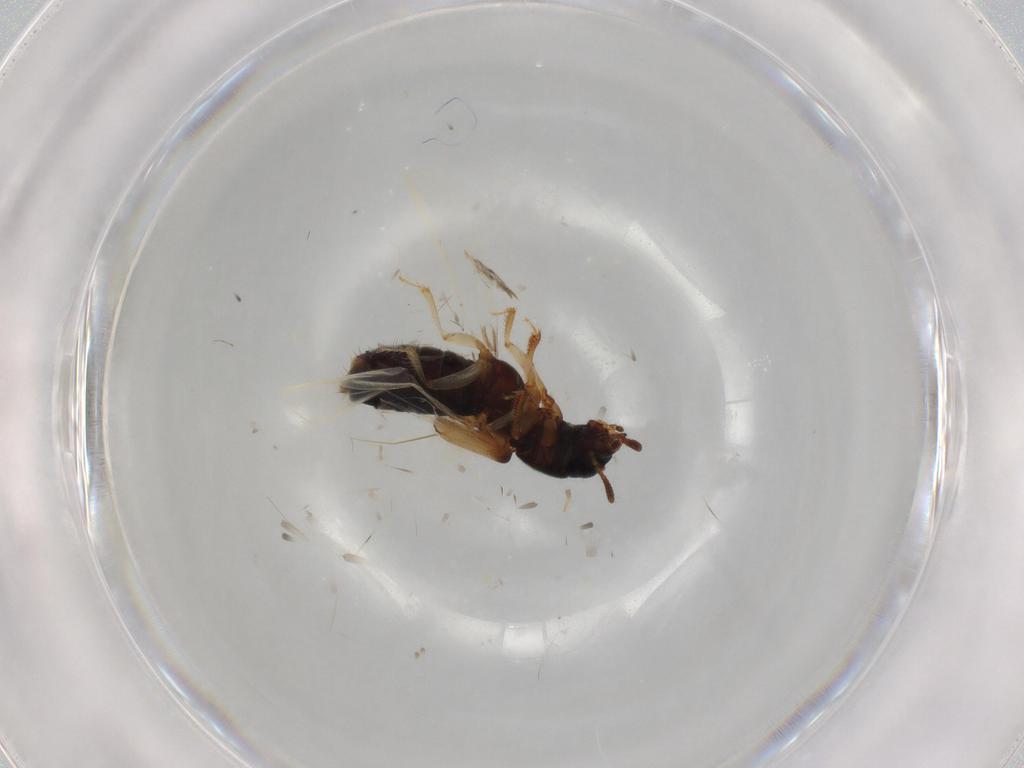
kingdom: Animalia
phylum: Arthropoda
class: Insecta
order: Coleoptera
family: Staphylinidae
